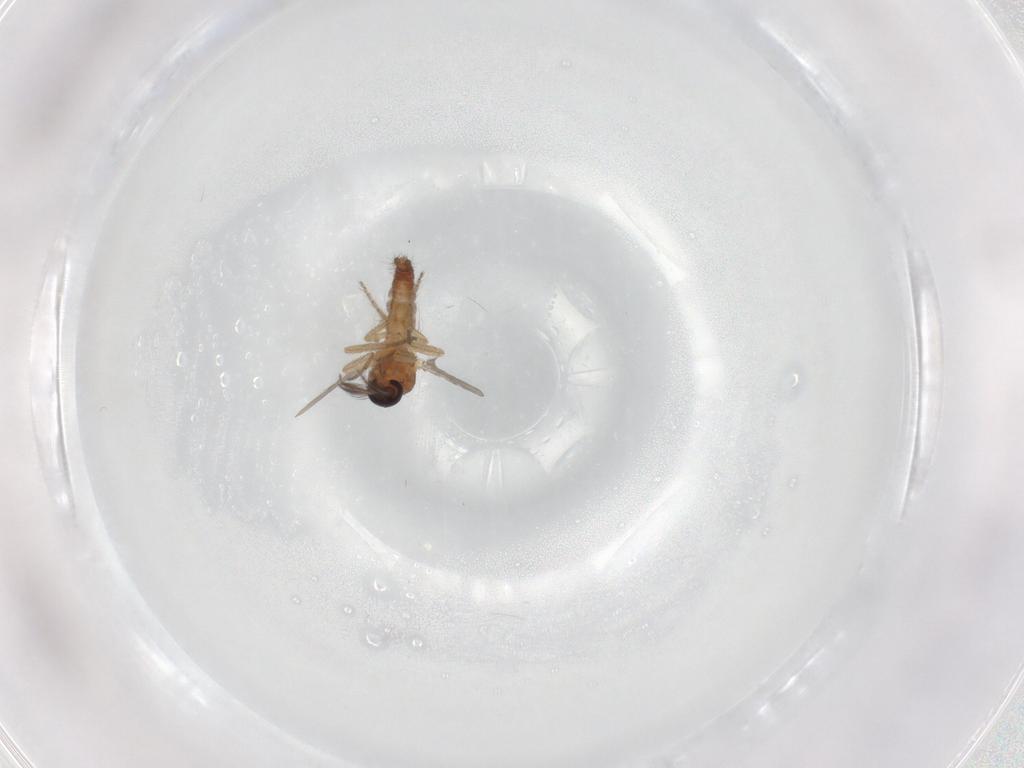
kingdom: Animalia
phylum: Arthropoda
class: Insecta
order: Diptera
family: Ceratopogonidae
